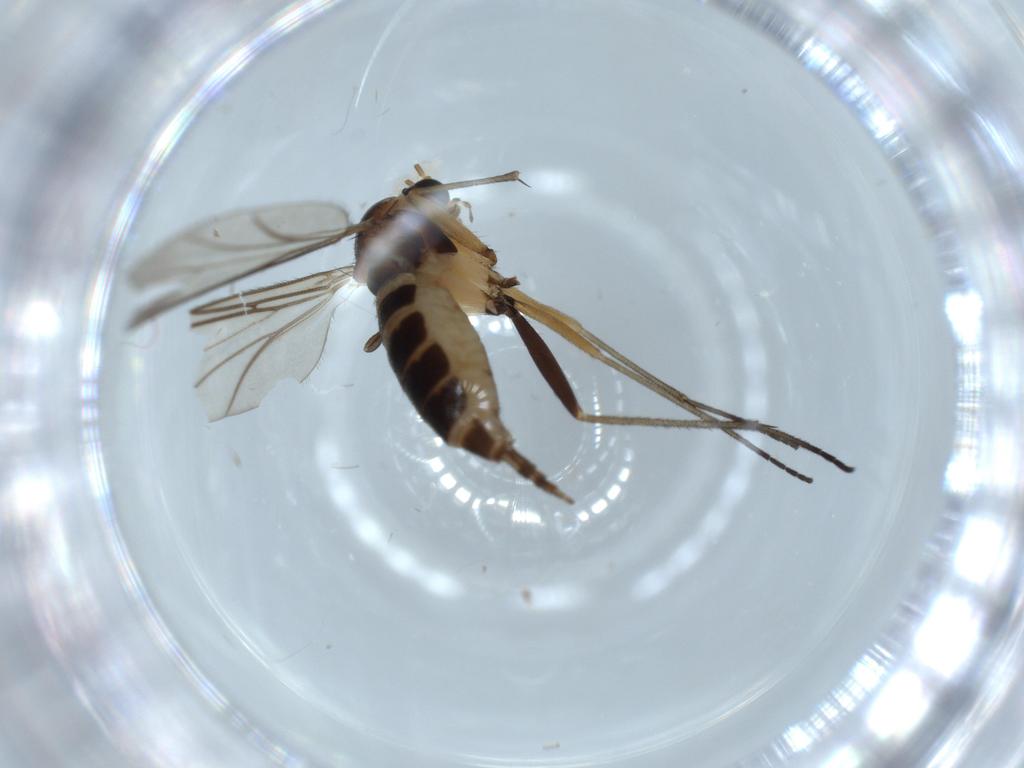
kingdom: Animalia
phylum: Arthropoda
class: Insecta
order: Diptera
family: Sciaridae
